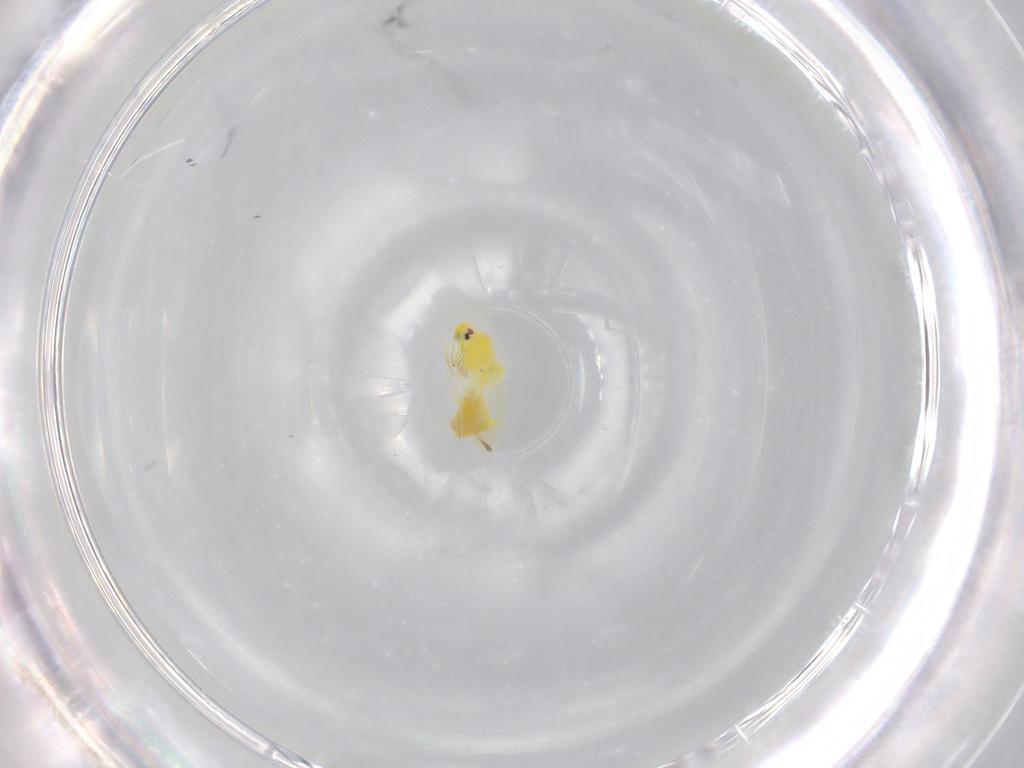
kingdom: Animalia
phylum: Arthropoda
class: Insecta
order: Hemiptera
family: Aleyrodidae
